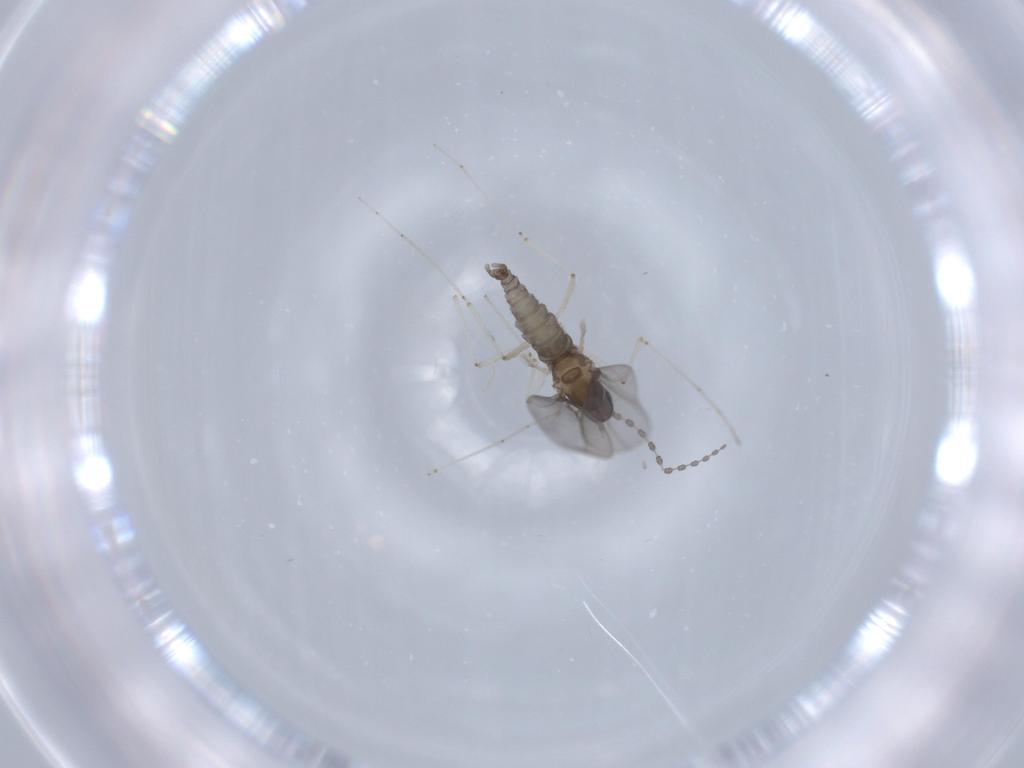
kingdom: Animalia
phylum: Arthropoda
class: Insecta
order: Diptera
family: Cecidomyiidae
